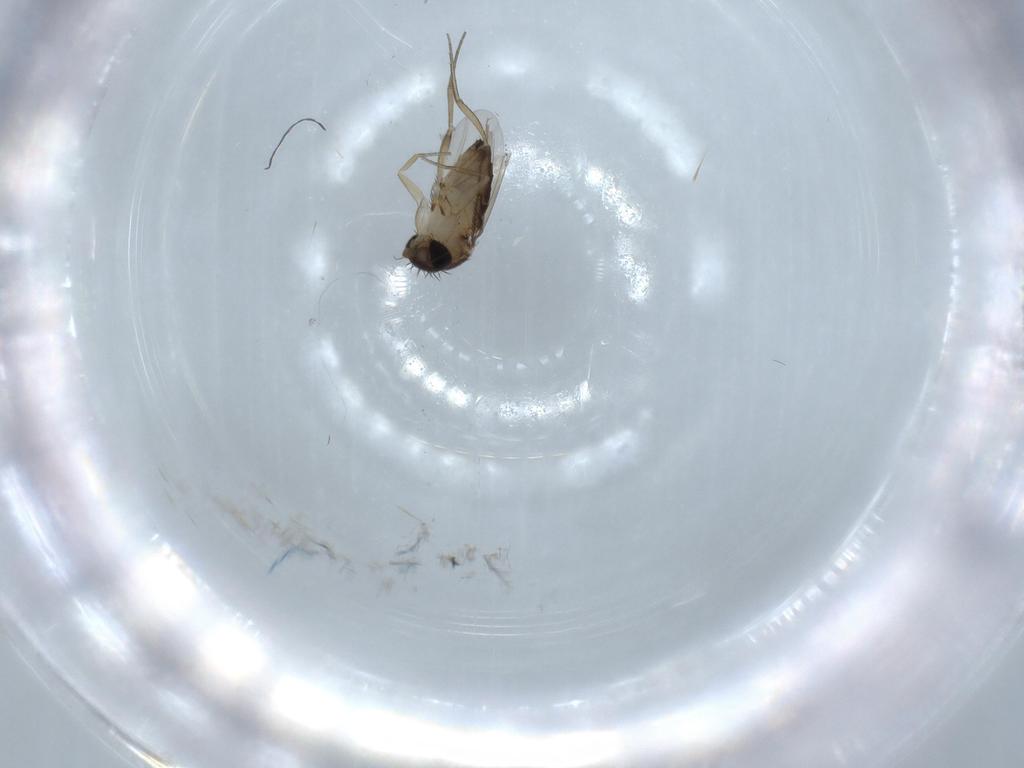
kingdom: Animalia
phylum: Arthropoda
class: Insecta
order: Diptera
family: Phoridae
